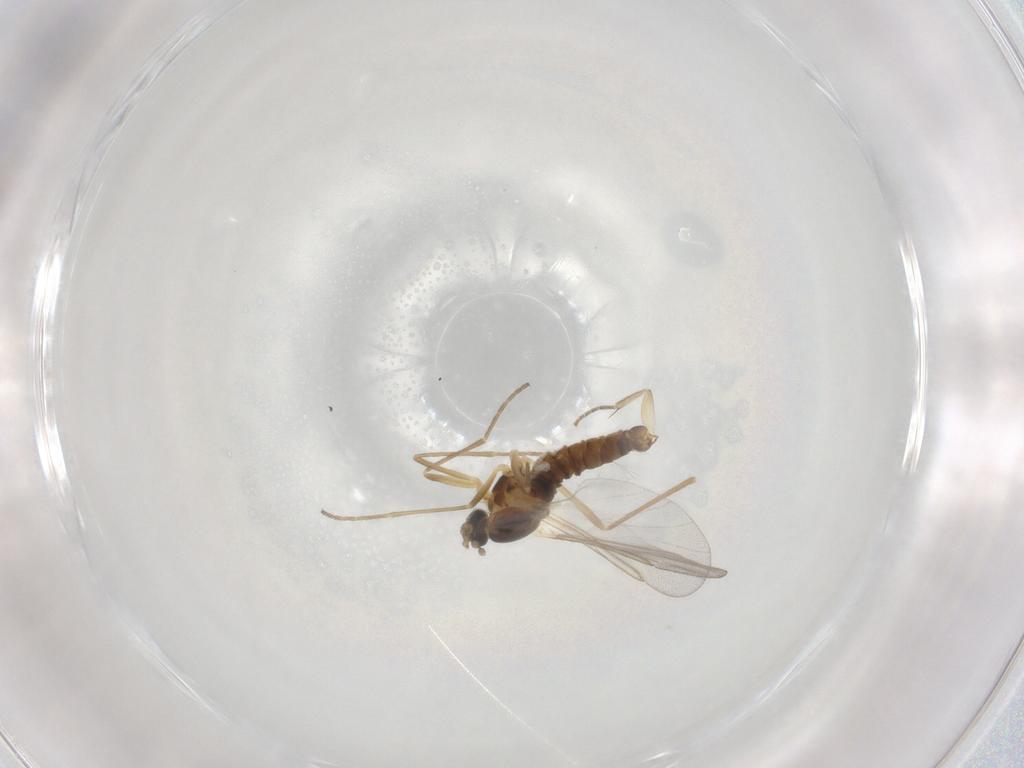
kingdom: Animalia
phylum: Arthropoda
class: Insecta
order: Diptera
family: Cecidomyiidae
